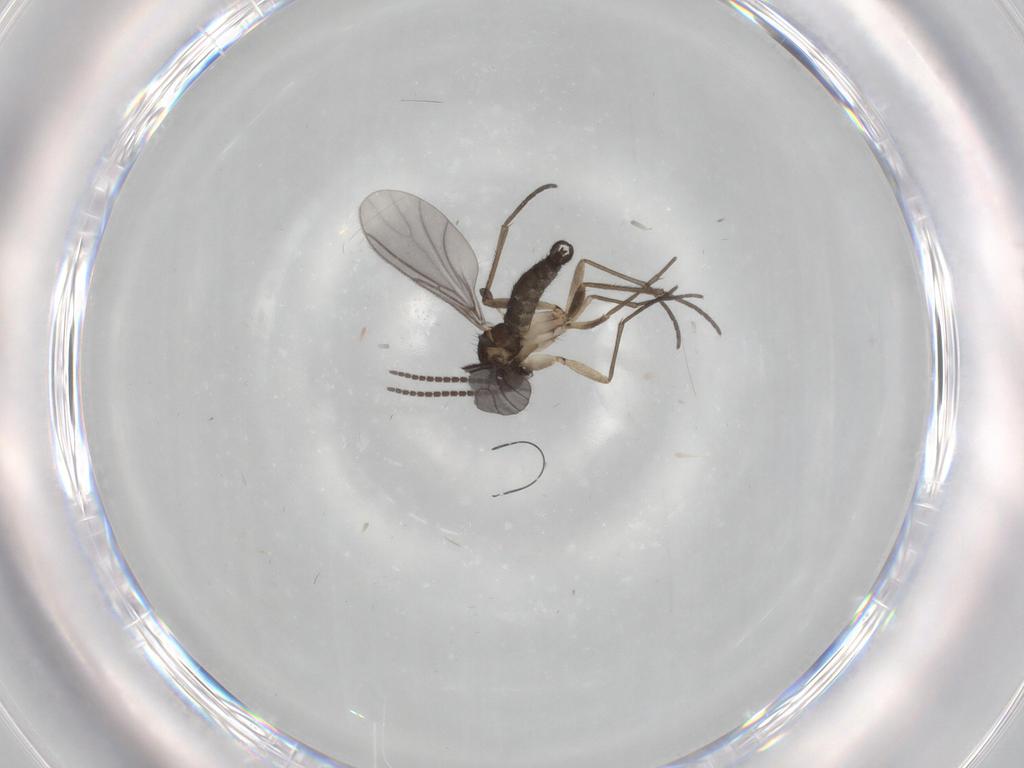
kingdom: Animalia
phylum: Arthropoda
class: Insecta
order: Diptera
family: Sciaridae
